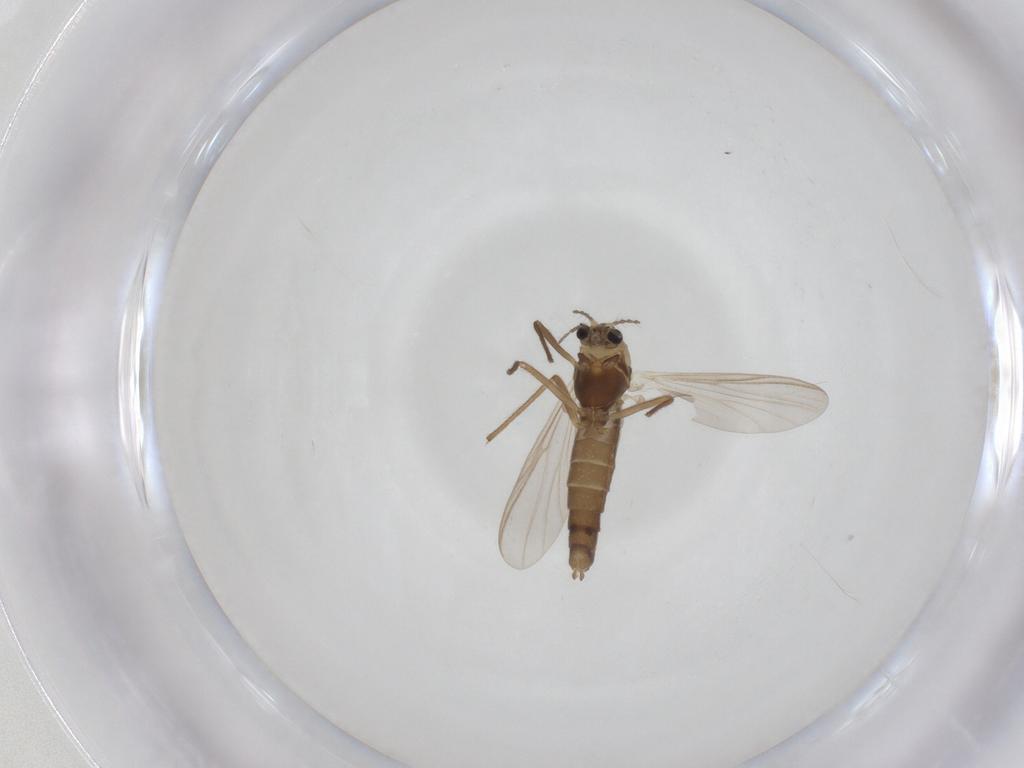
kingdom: Animalia
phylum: Arthropoda
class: Insecta
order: Diptera
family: Chironomidae
